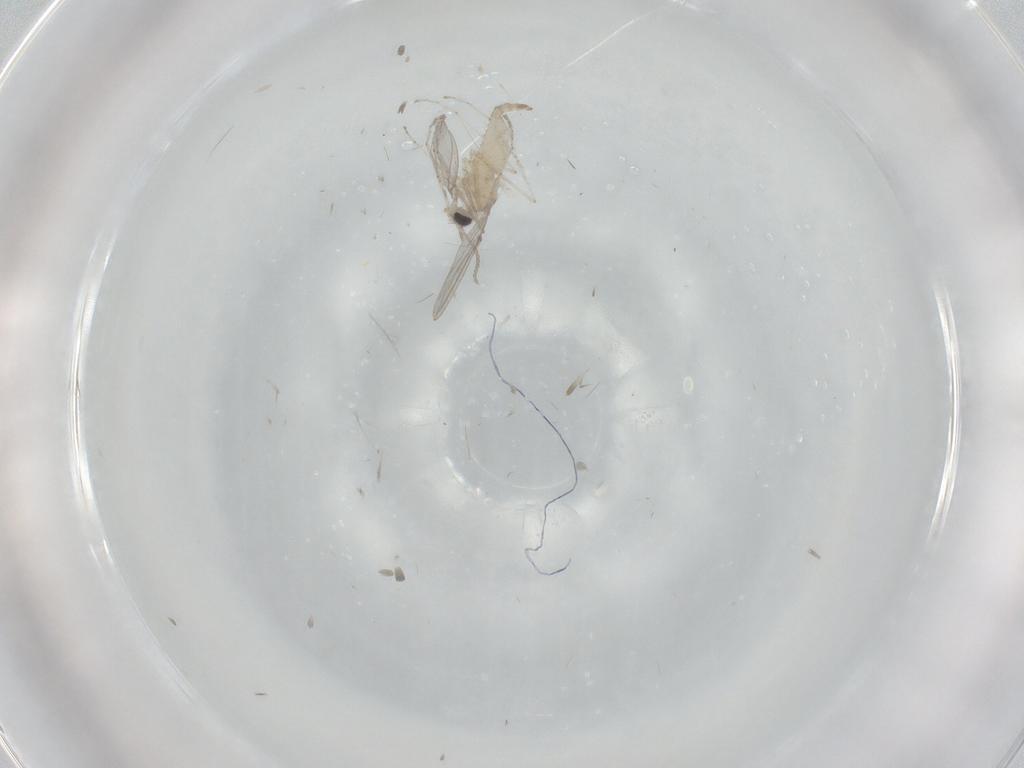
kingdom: Animalia
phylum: Arthropoda
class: Insecta
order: Diptera
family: Cecidomyiidae
